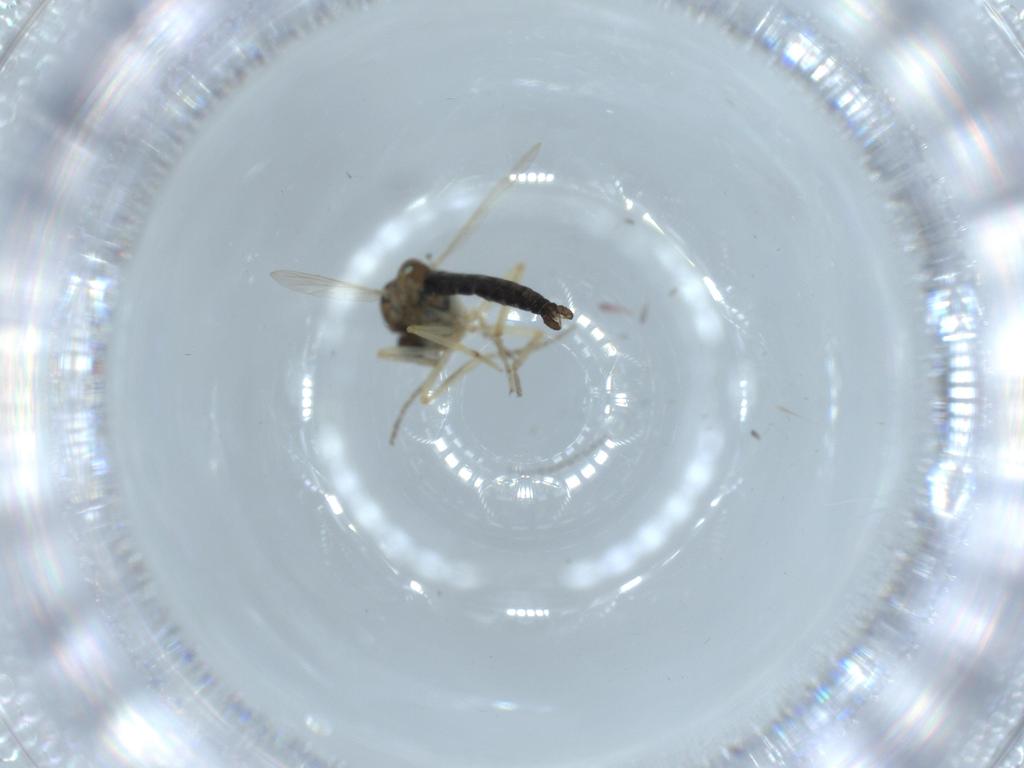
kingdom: Animalia
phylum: Arthropoda
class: Insecta
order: Diptera
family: Ceratopogonidae
